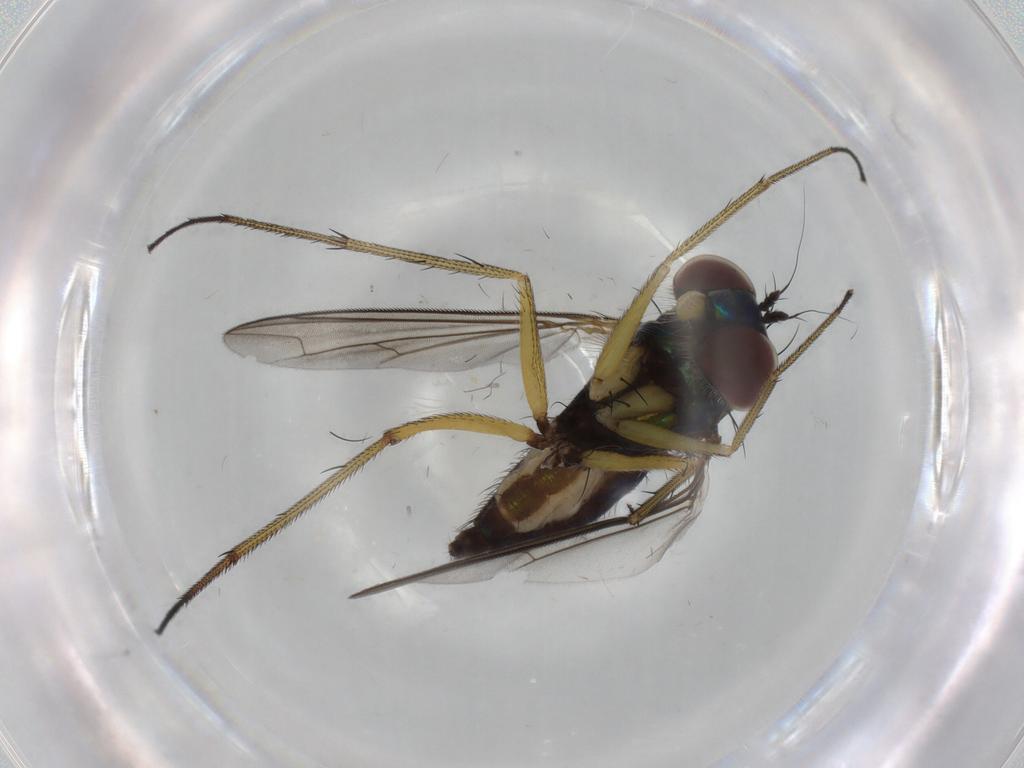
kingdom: Animalia
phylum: Arthropoda
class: Insecta
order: Diptera
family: Dolichopodidae
